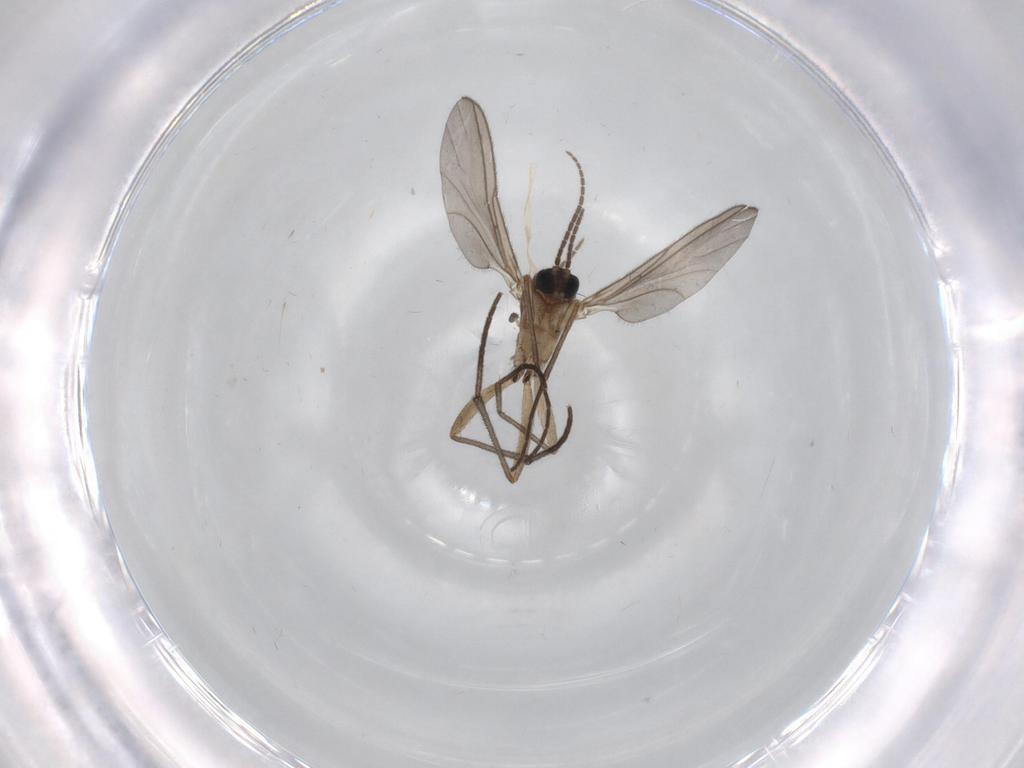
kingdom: Animalia
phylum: Arthropoda
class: Insecta
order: Diptera
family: Sciaridae
